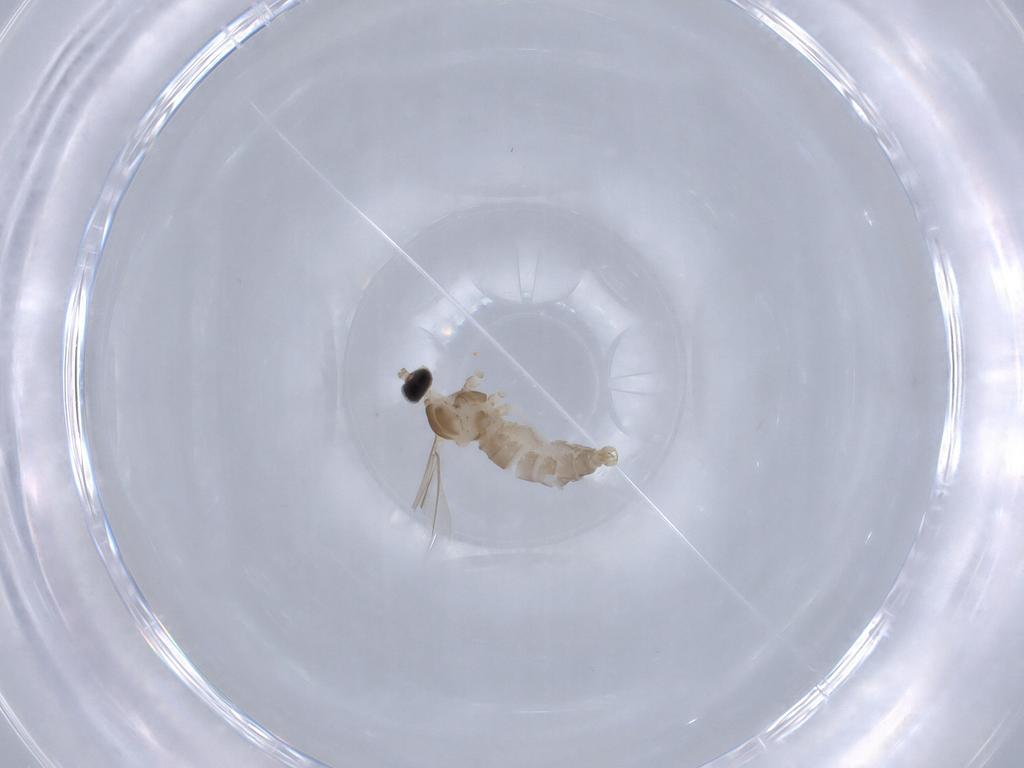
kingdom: Animalia
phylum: Arthropoda
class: Insecta
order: Diptera
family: Cecidomyiidae
